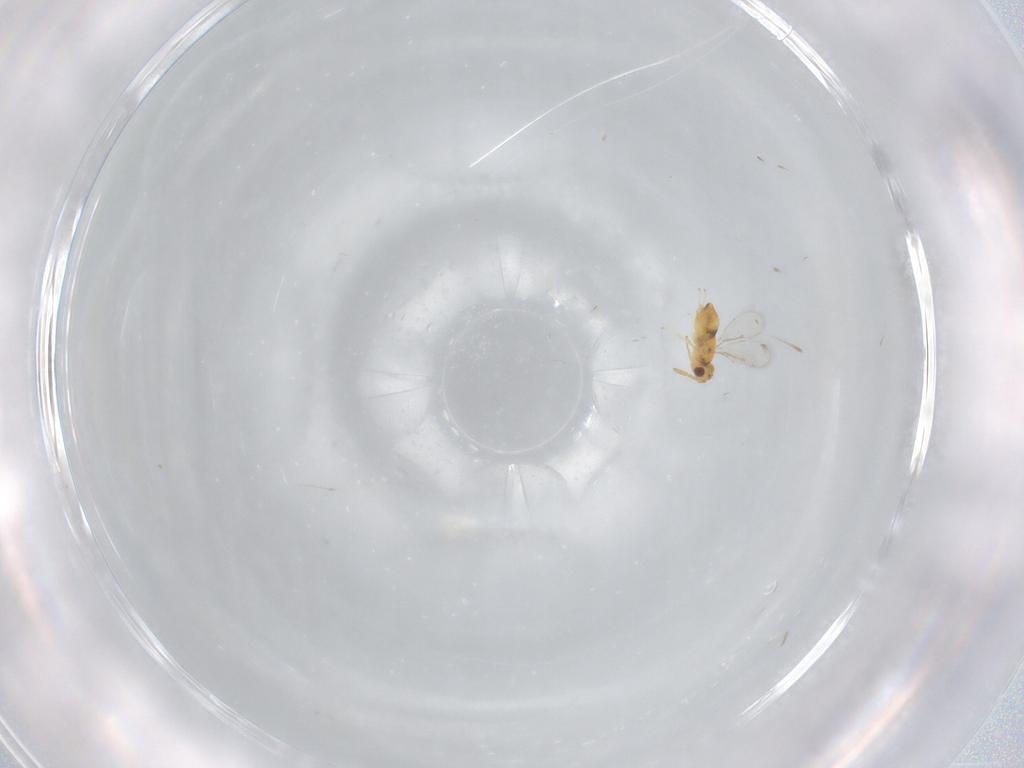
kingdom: Animalia
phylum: Arthropoda
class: Insecta
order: Hymenoptera
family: Aphelinidae
